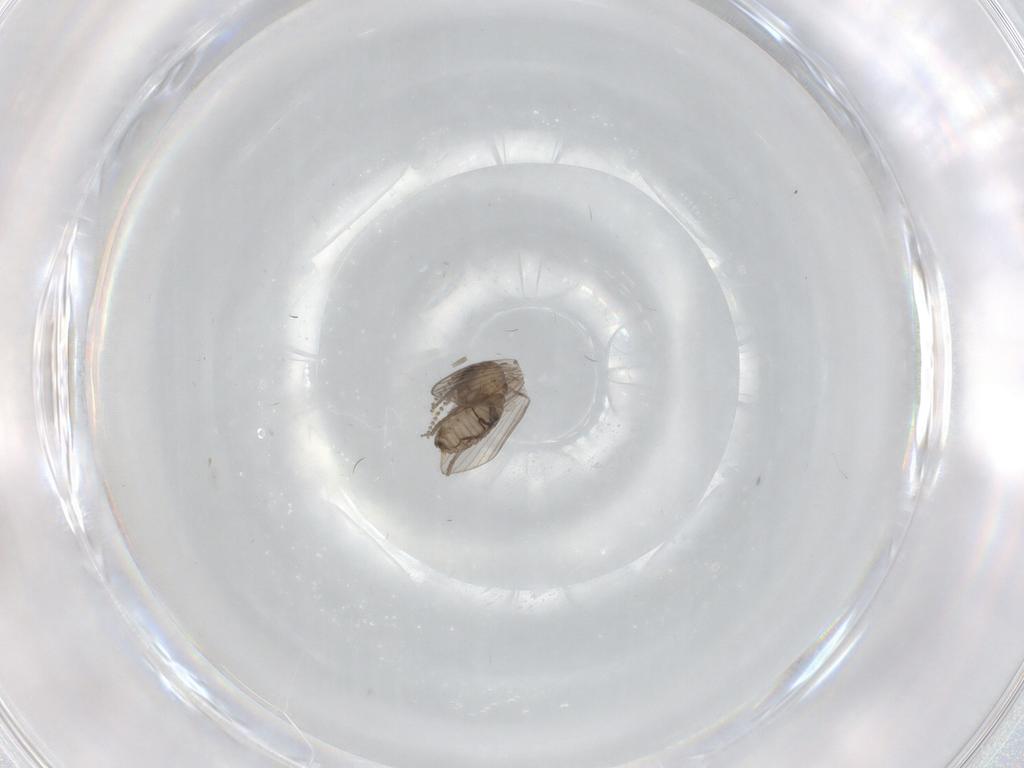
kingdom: Animalia
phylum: Arthropoda
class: Insecta
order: Diptera
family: Psychodidae
